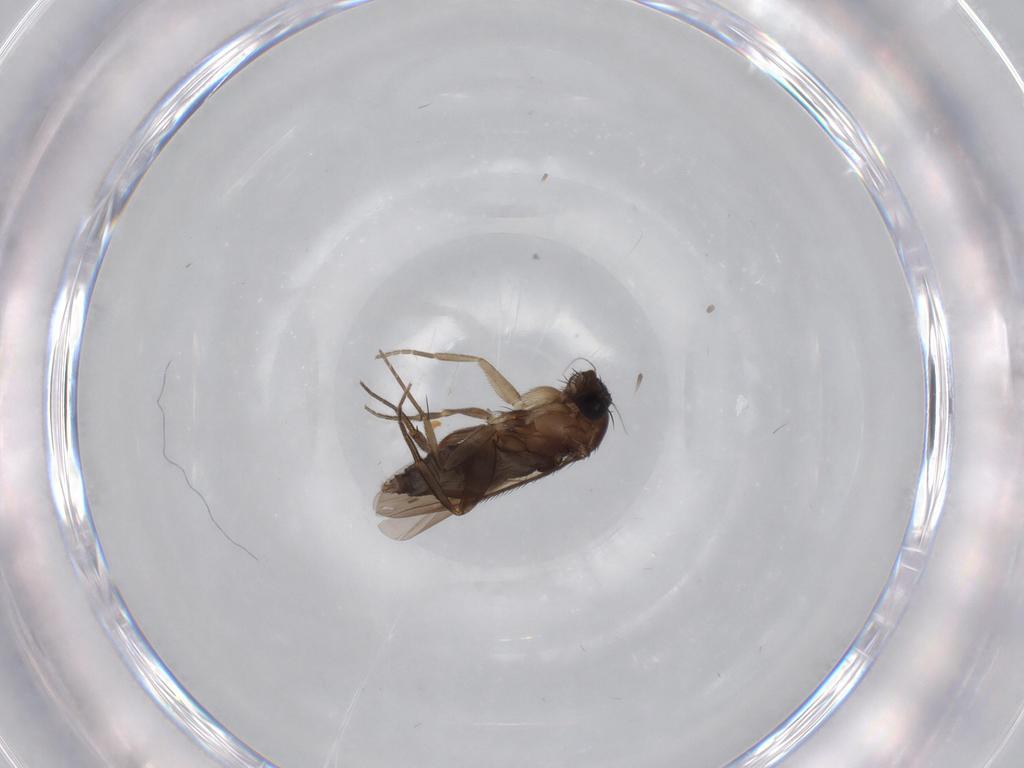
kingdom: Animalia
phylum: Arthropoda
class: Insecta
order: Diptera
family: Phoridae
